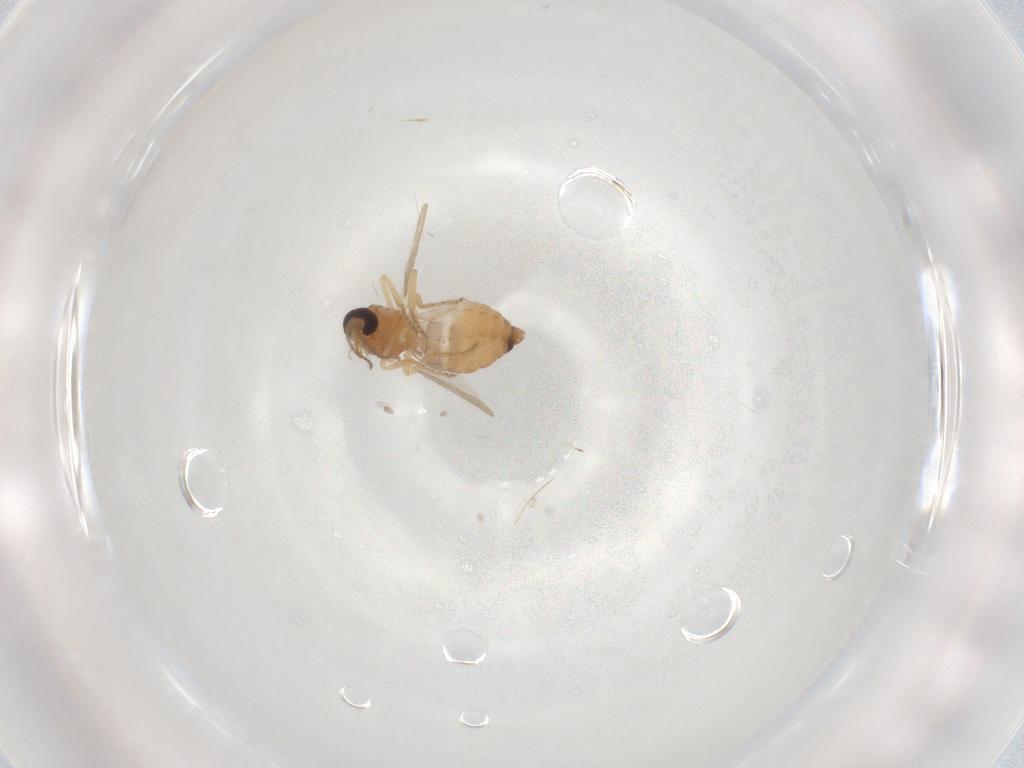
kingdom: Animalia
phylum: Arthropoda
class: Insecta
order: Diptera
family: Ceratopogonidae
